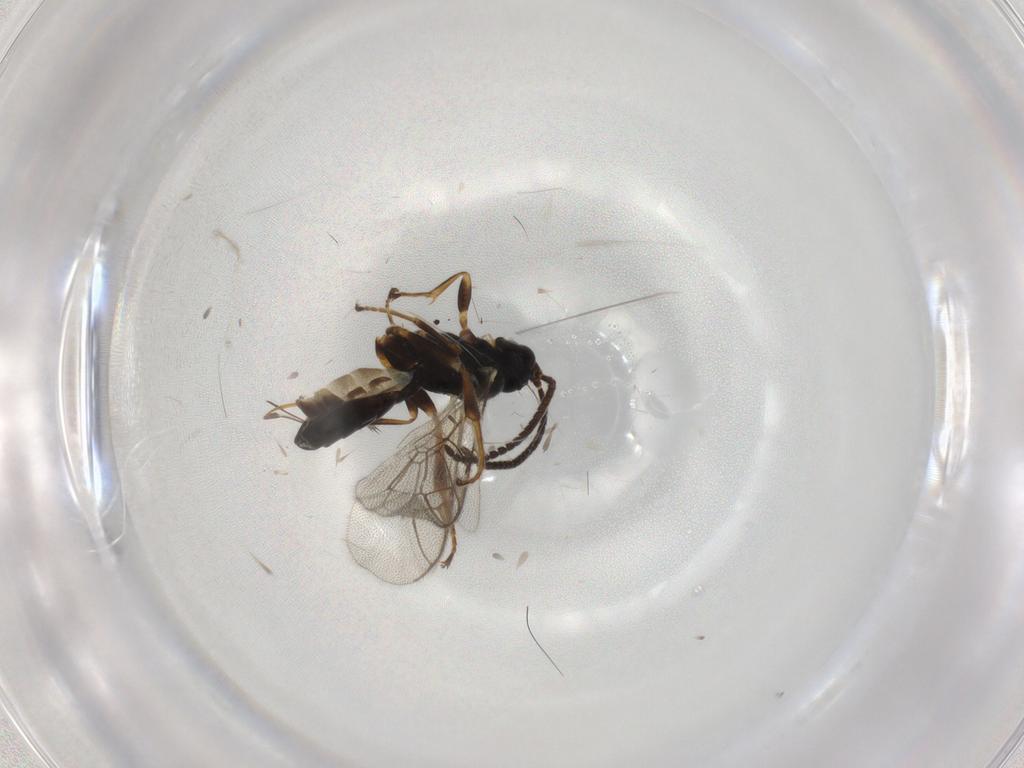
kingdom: Animalia
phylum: Arthropoda
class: Insecta
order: Hymenoptera
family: Ichneumonidae
